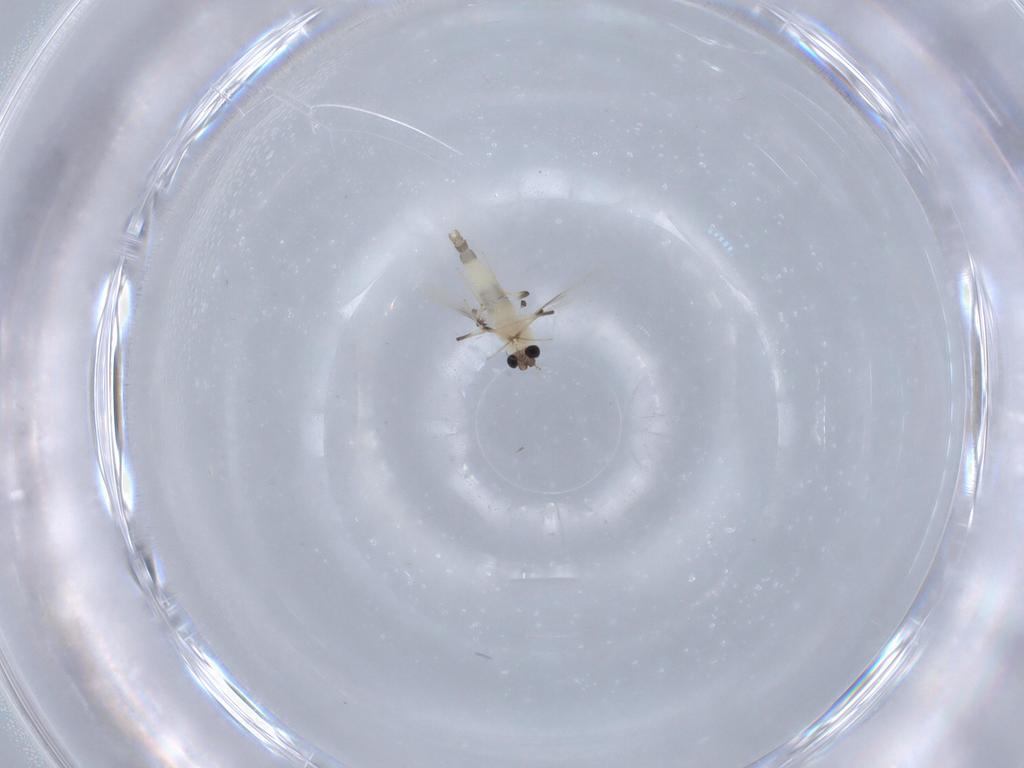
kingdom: Animalia
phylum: Arthropoda
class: Insecta
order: Diptera
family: Chironomidae
